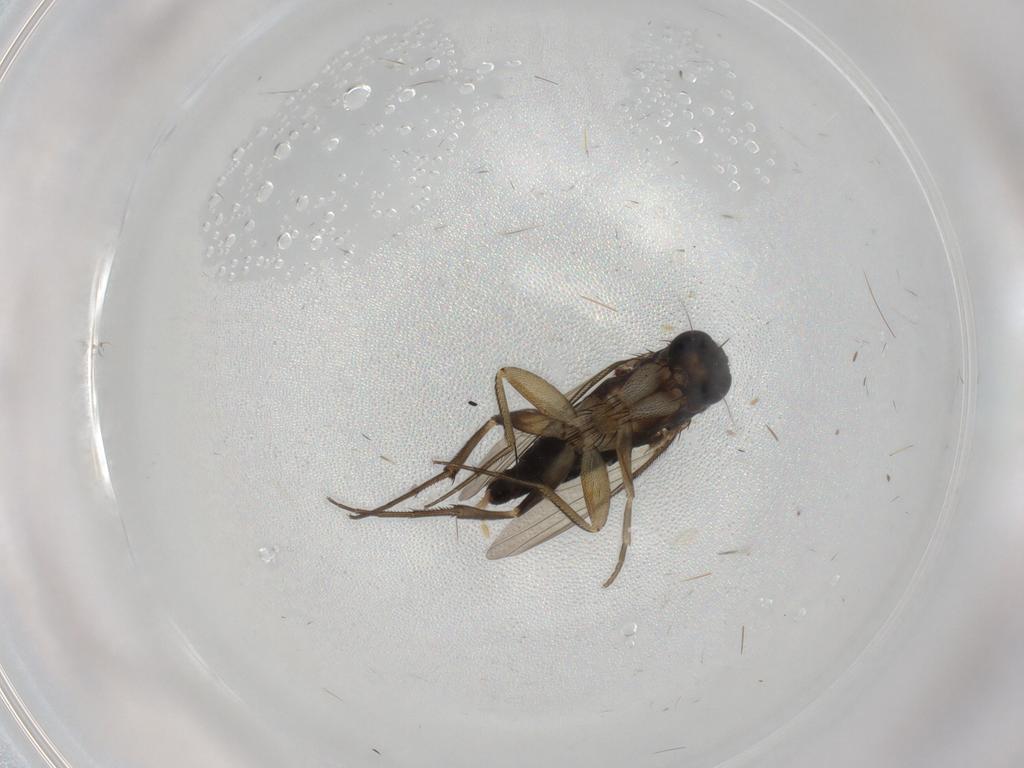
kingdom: Animalia
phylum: Arthropoda
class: Insecta
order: Diptera
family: Phoridae
